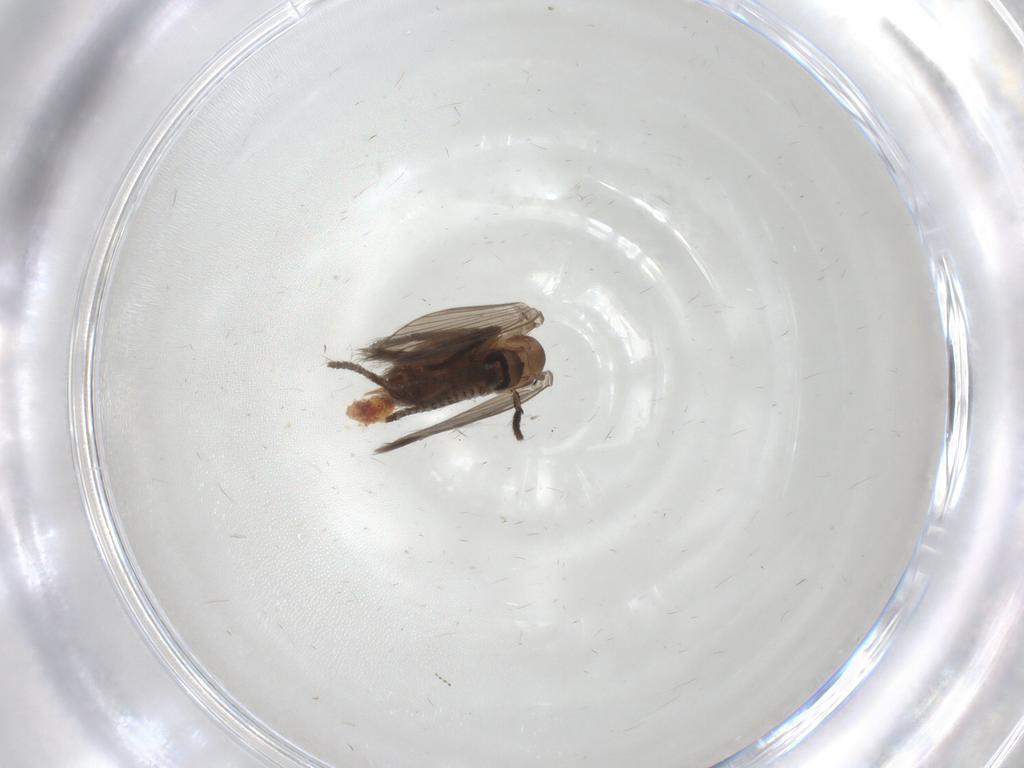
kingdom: Animalia
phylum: Arthropoda
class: Insecta
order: Diptera
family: Psychodidae
